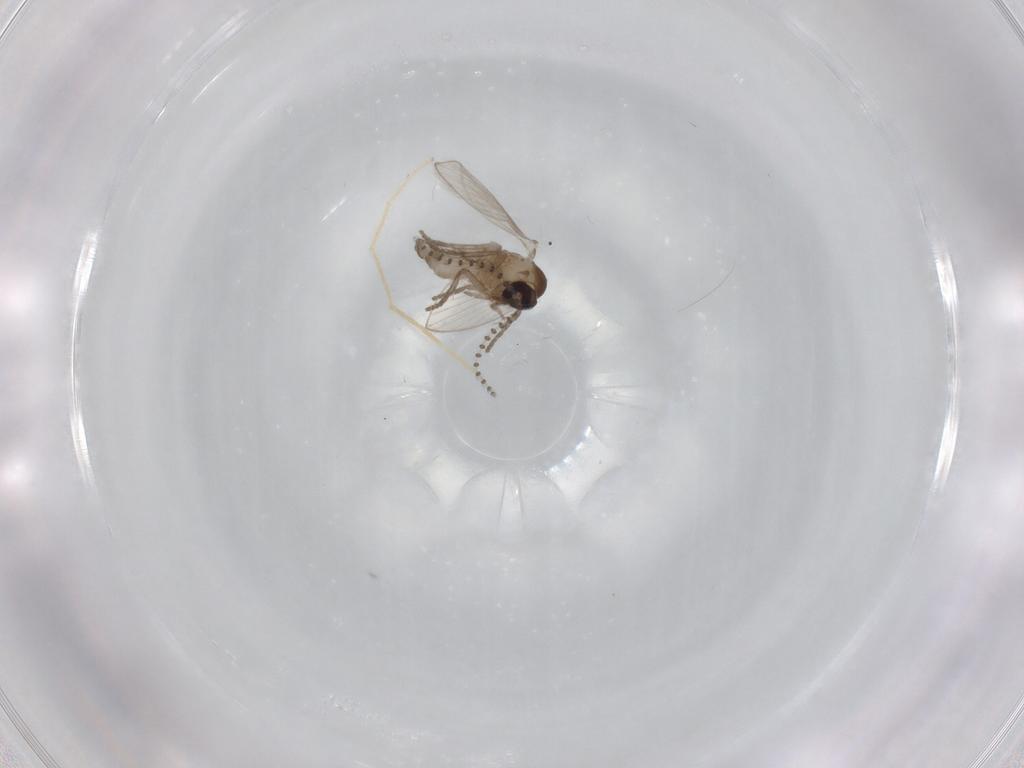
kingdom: Animalia
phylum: Arthropoda
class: Insecta
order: Diptera
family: Chironomidae
